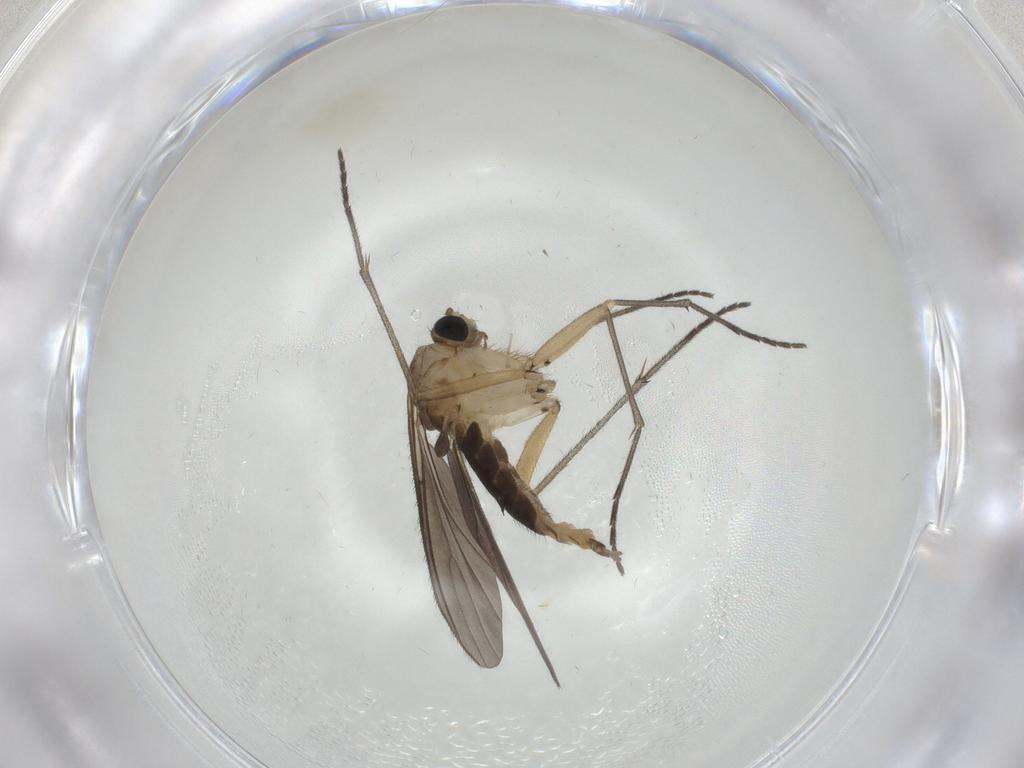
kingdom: Animalia
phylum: Arthropoda
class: Insecta
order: Diptera
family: Sciaridae
